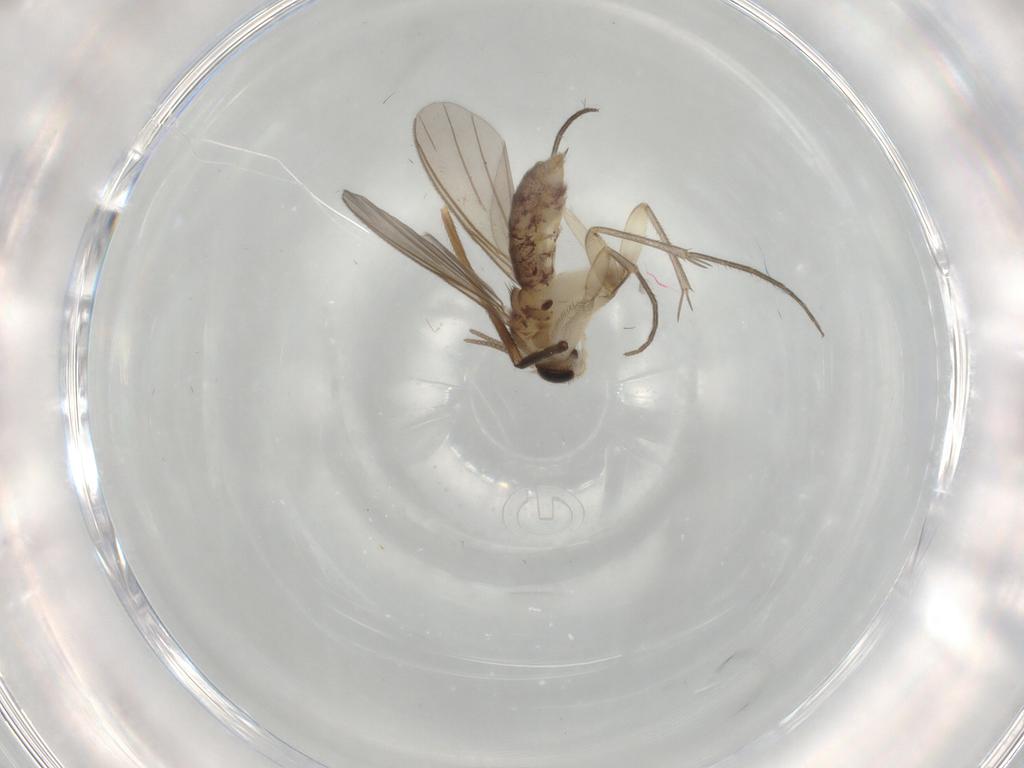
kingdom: Animalia
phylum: Arthropoda
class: Insecta
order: Diptera
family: Mycetophilidae
